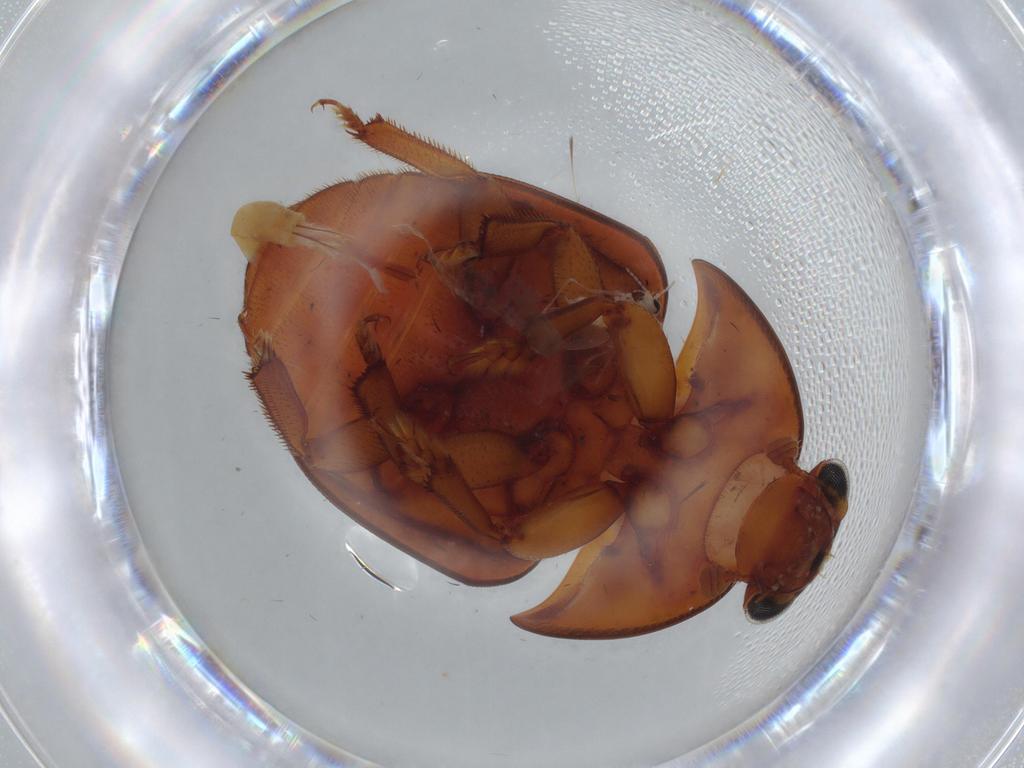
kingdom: Animalia
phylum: Arthropoda
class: Insecta
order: Coleoptera
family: Nitidulidae
